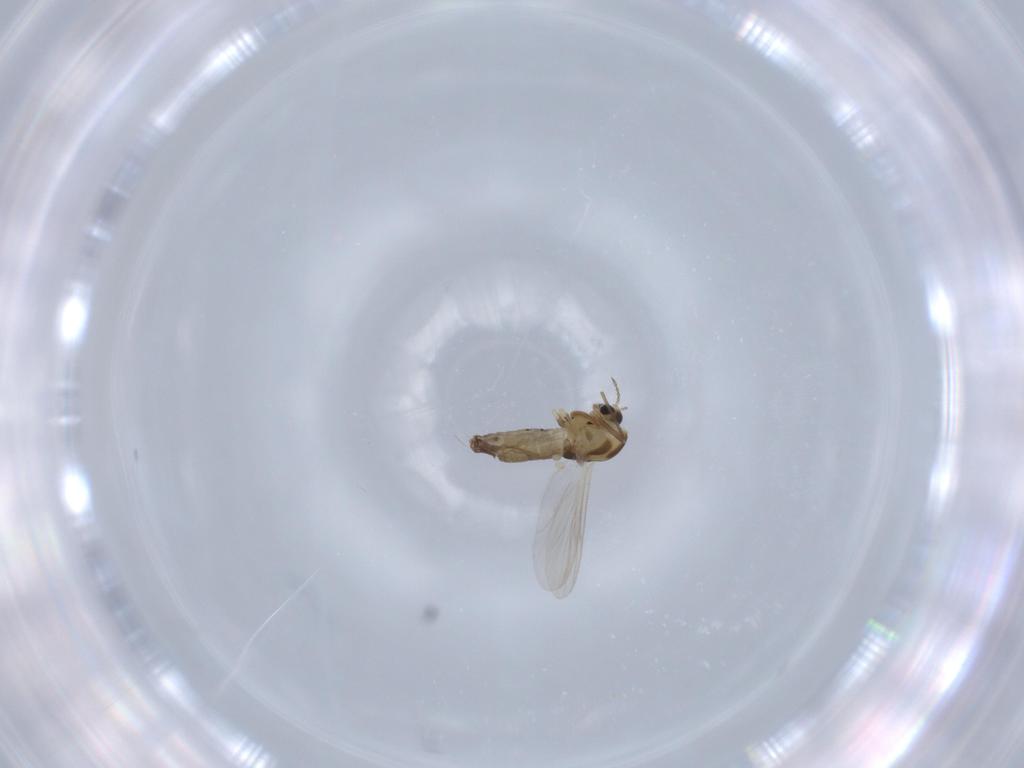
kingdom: Animalia
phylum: Arthropoda
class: Insecta
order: Diptera
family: Chironomidae
